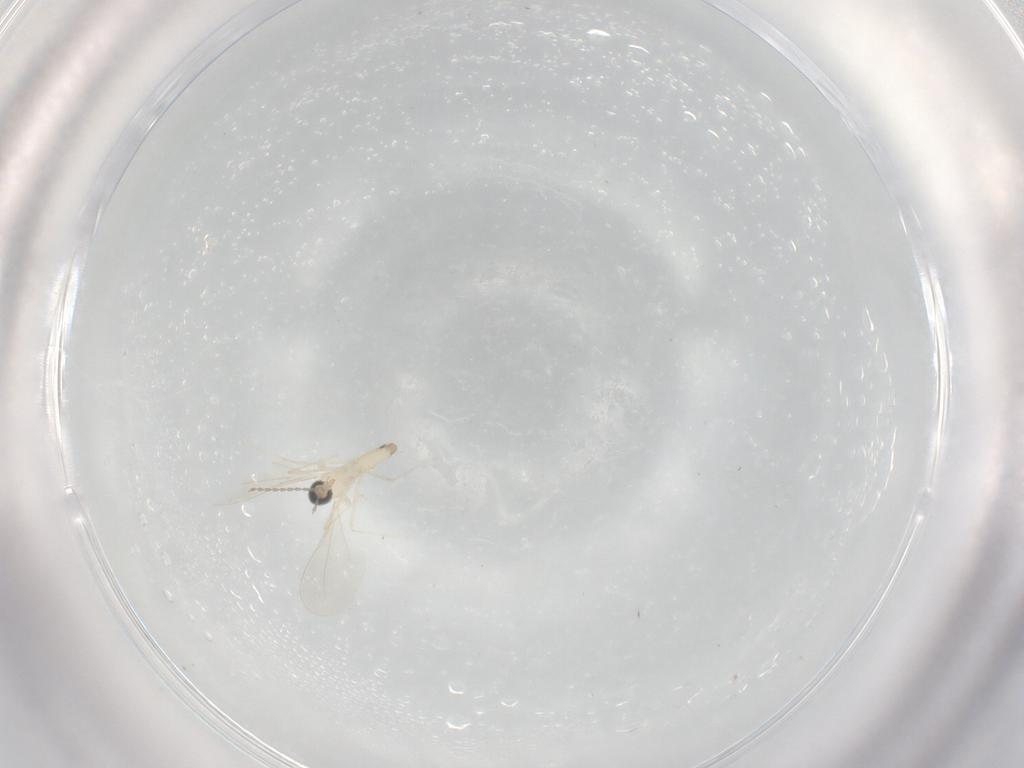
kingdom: Animalia
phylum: Arthropoda
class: Insecta
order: Diptera
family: Cecidomyiidae
